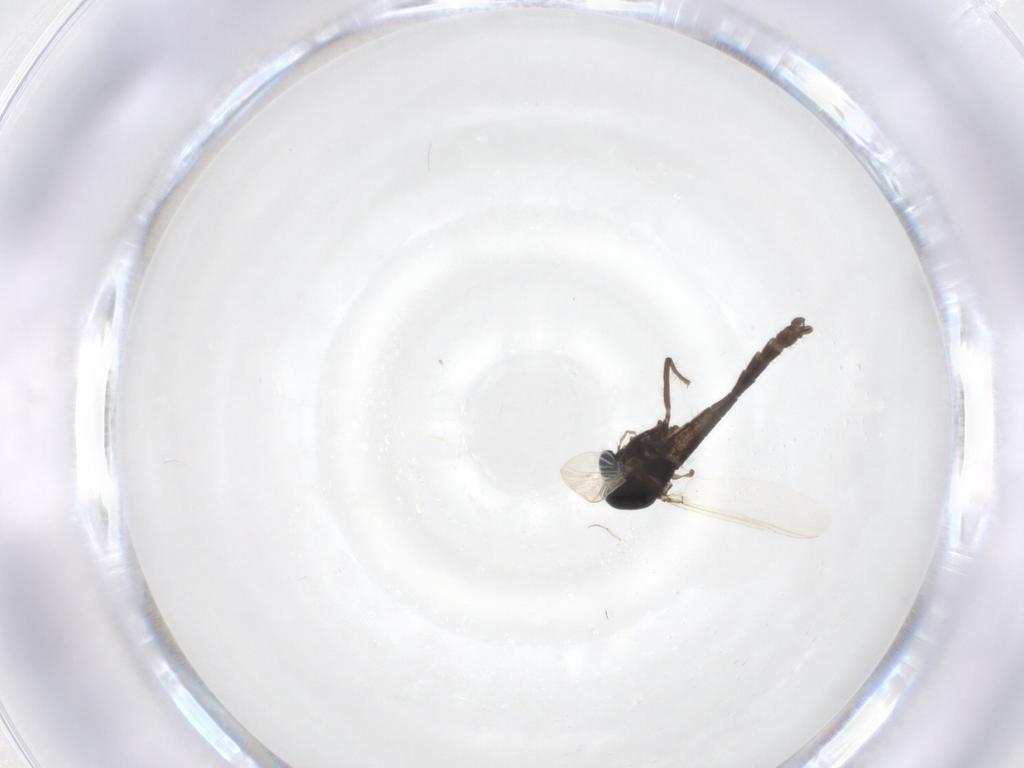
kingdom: Animalia
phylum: Arthropoda
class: Insecta
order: Diptera
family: Chironomidae
